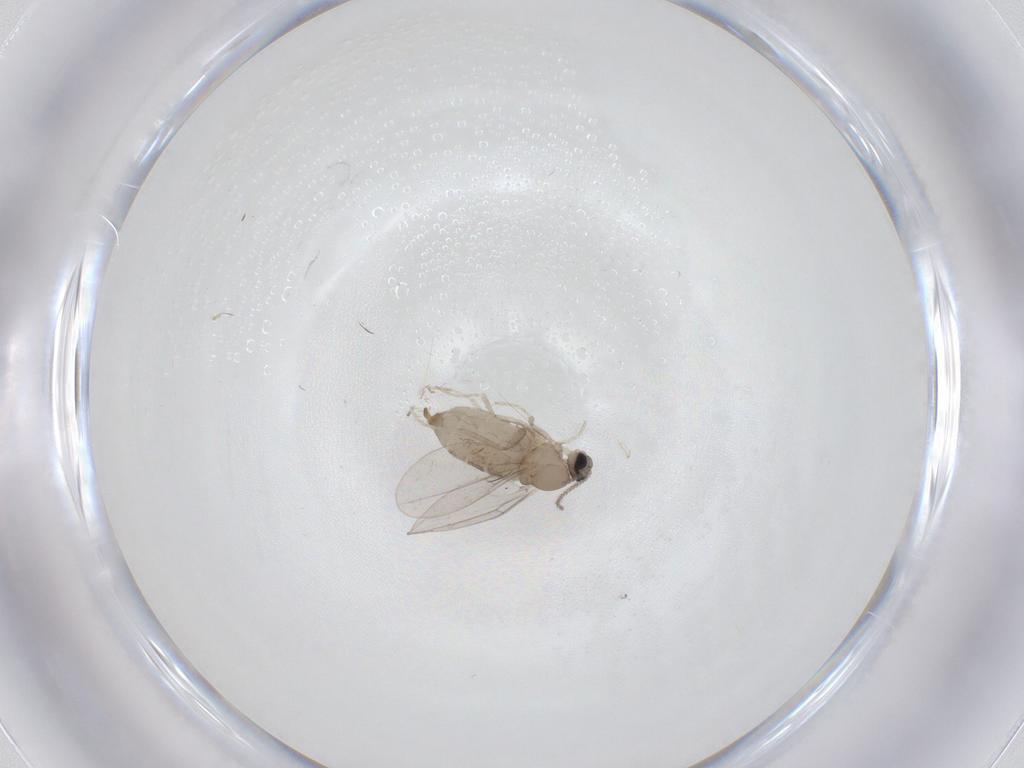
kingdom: Animalia
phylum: Arthropoda
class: Insecta
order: Diptera
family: Cecidomyiidae
